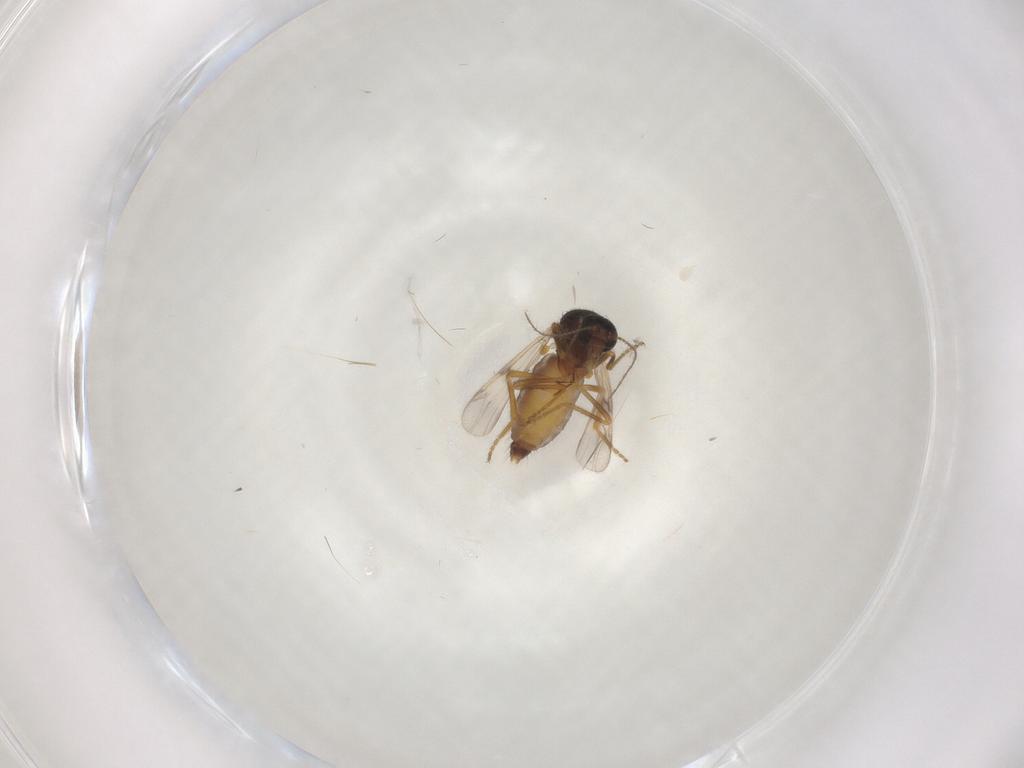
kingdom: Animalia
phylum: Arthropoda
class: Insecta
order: Diptera
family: Ceratopogonidae
